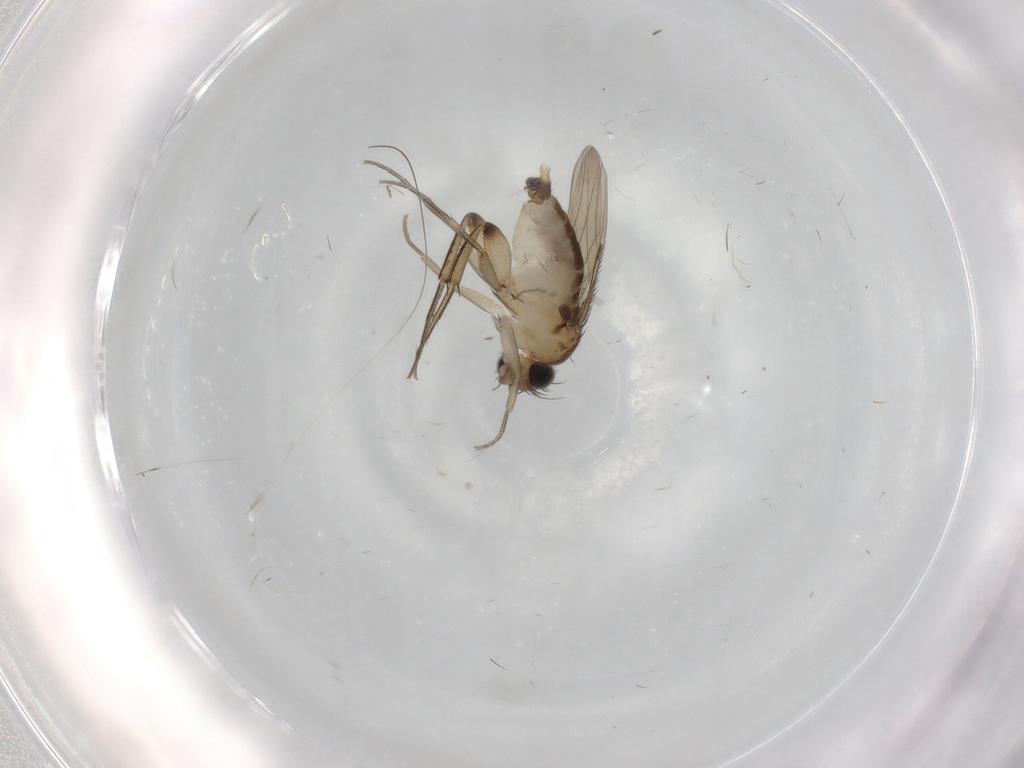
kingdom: Animalia
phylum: Arthropoda
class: Insecta
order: Diptera
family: Phoridae
